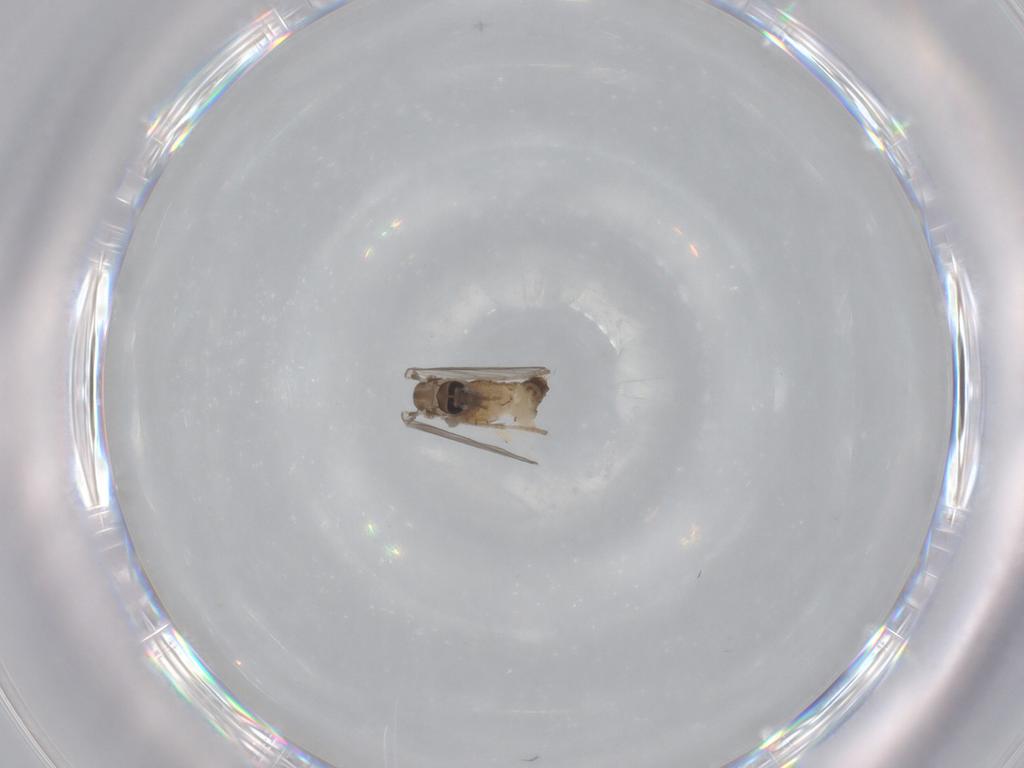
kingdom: Animalia
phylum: Arthropoda
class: Insecta
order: Diptera
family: Psychodidae
